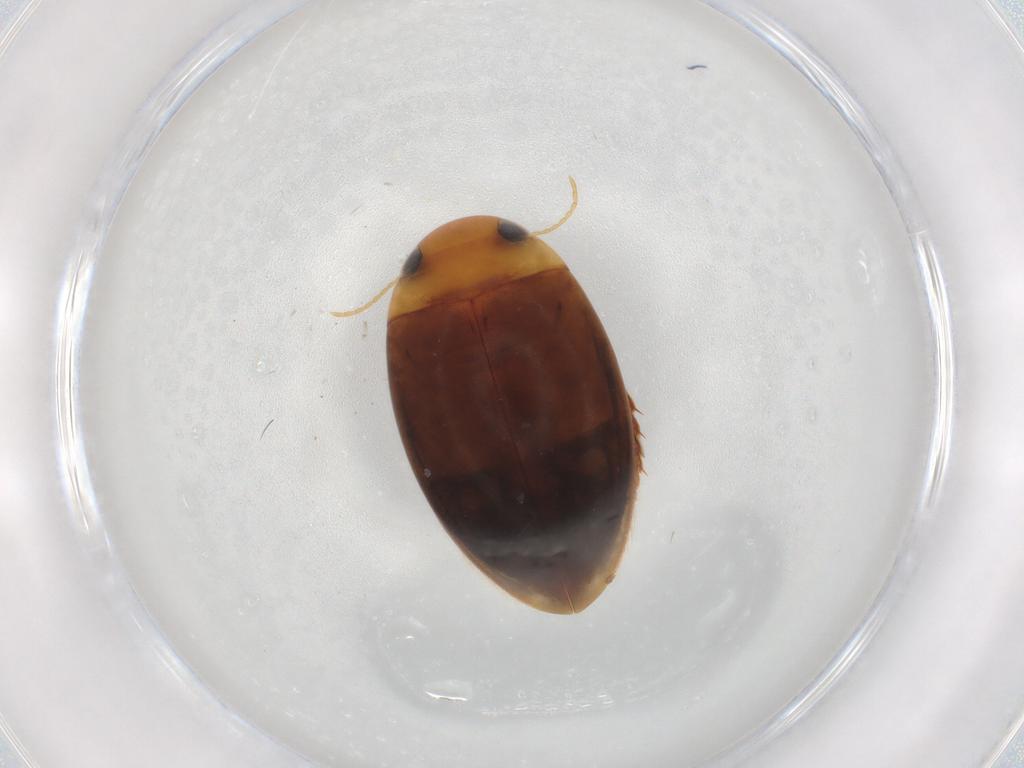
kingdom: Animalia
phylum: Arthropoda
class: Insecta
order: Coleoptera
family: Dytiscidae
